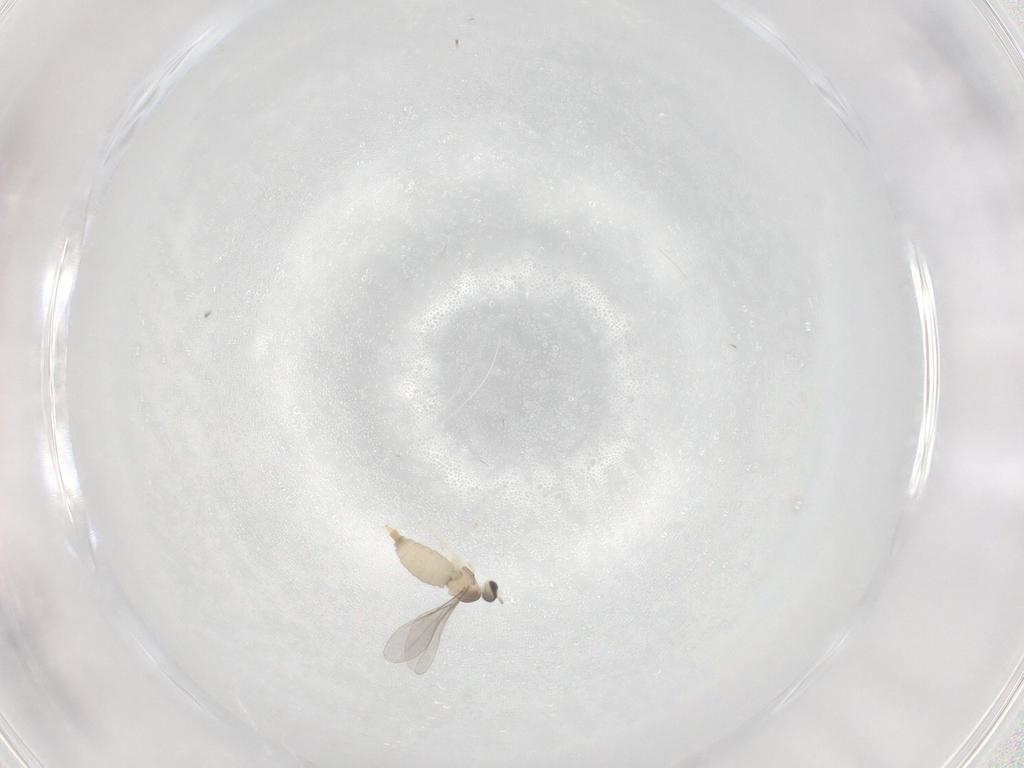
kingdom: Animalia
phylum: Arthropoda
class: Insecta
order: Diptera
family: Cecidomyiidae
